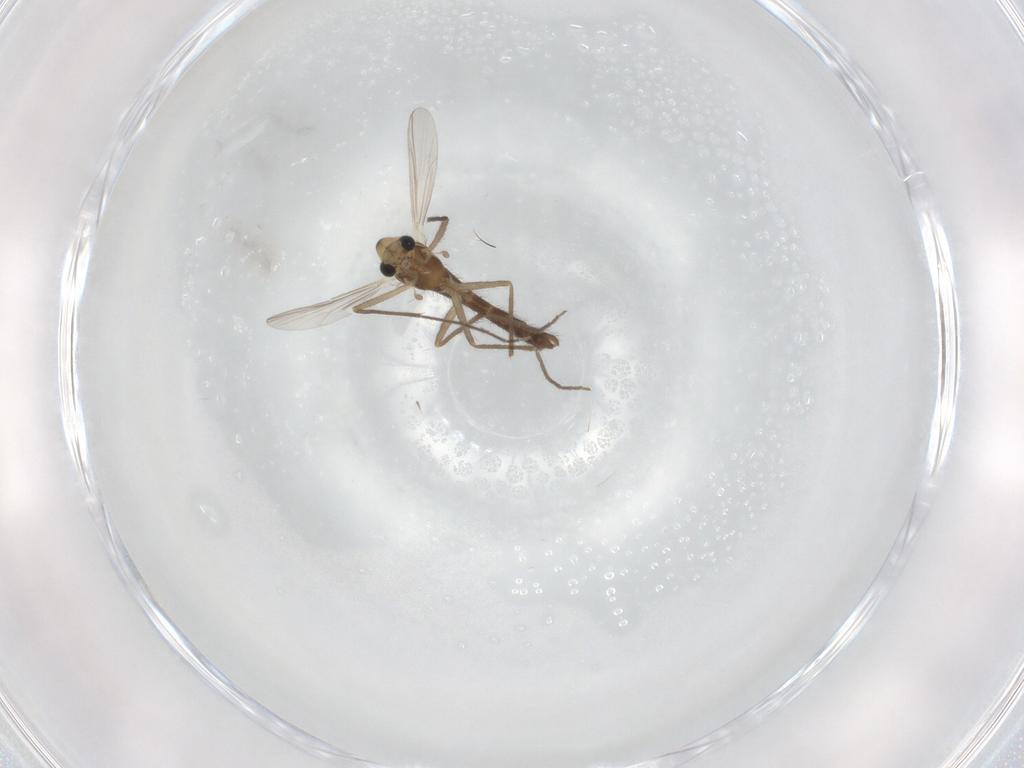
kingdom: Animalia
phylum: Arthropoda
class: Insecta
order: Diptera
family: Chironomidae
